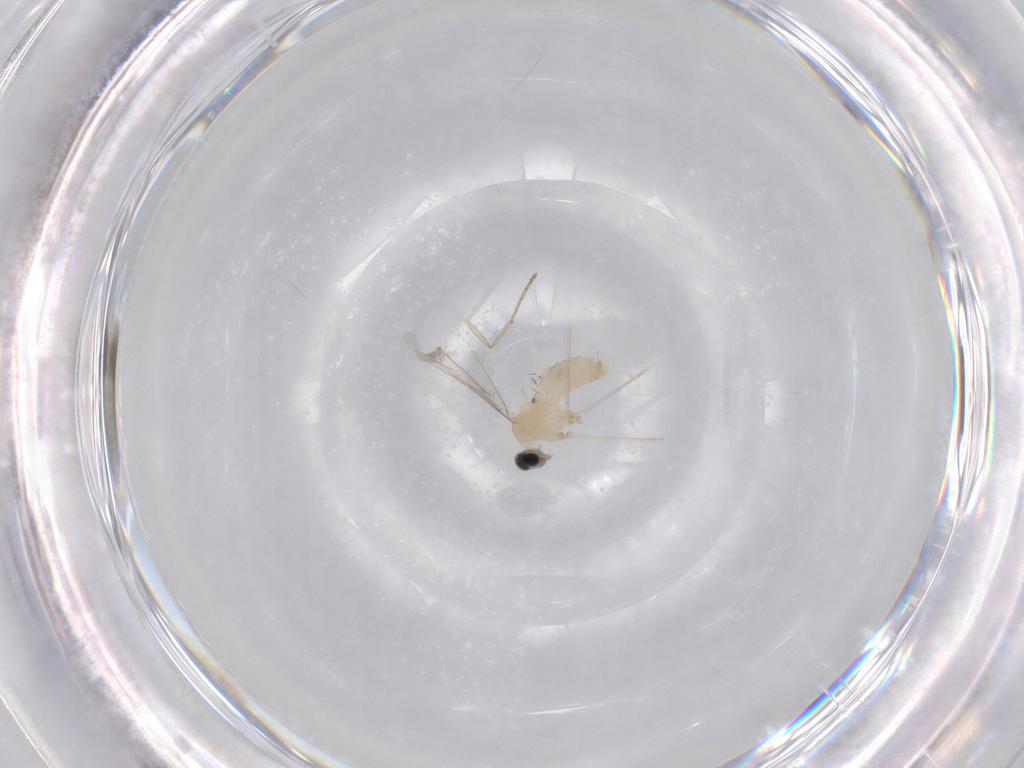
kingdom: Animalia
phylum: Arthropoda
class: Insecta
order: Diptera
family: Cecidomyiidae
